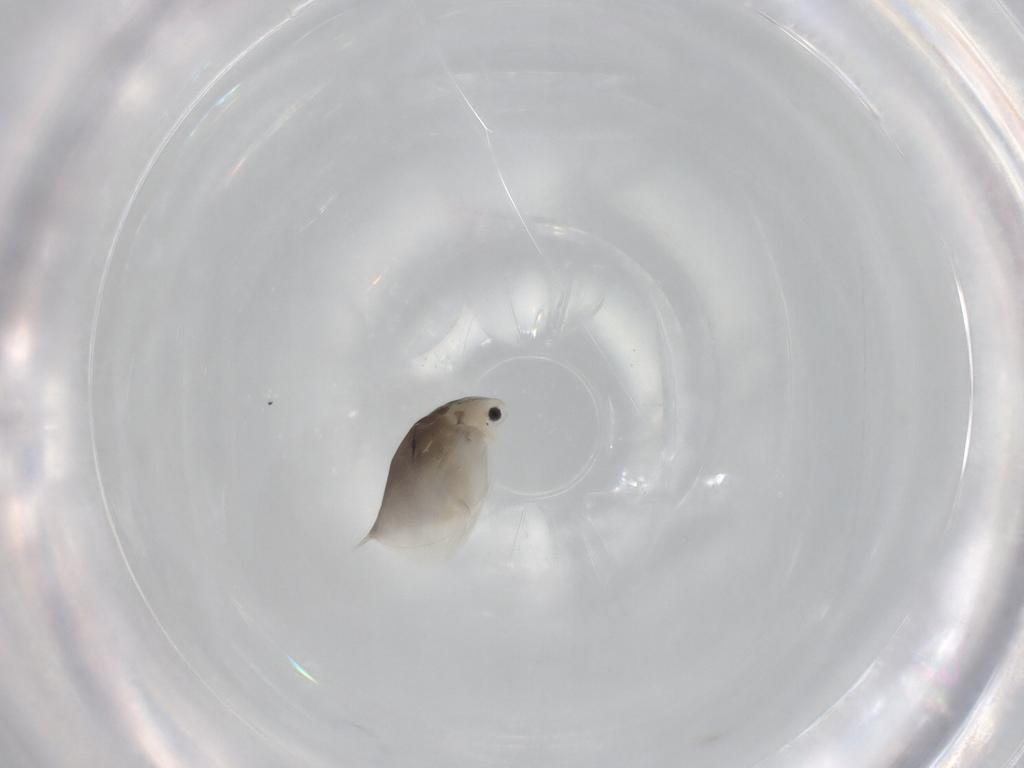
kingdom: Animalia
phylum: Arthropoda
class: Branchiopoda
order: Diplostraca
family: Daphniidae
